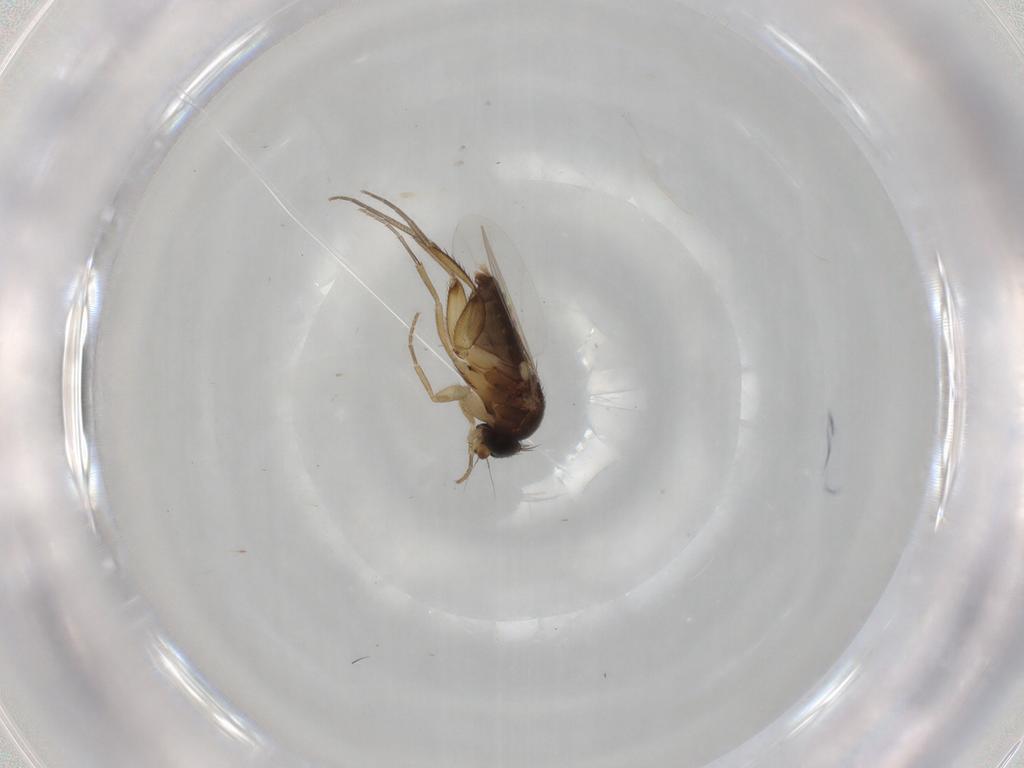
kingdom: Animalia
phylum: Arthropoda
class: Insecta
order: Diptera
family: Phoridae
